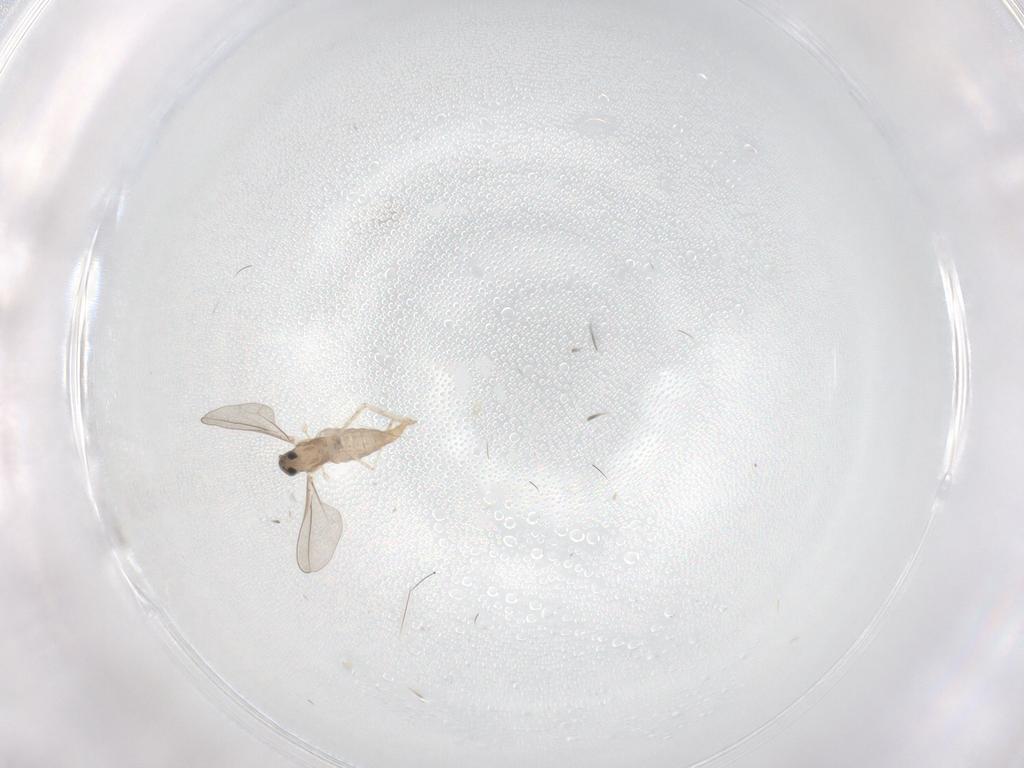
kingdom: Animalia
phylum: Arthropoda
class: Insecta
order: Diptera
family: Cecidomyiidae
